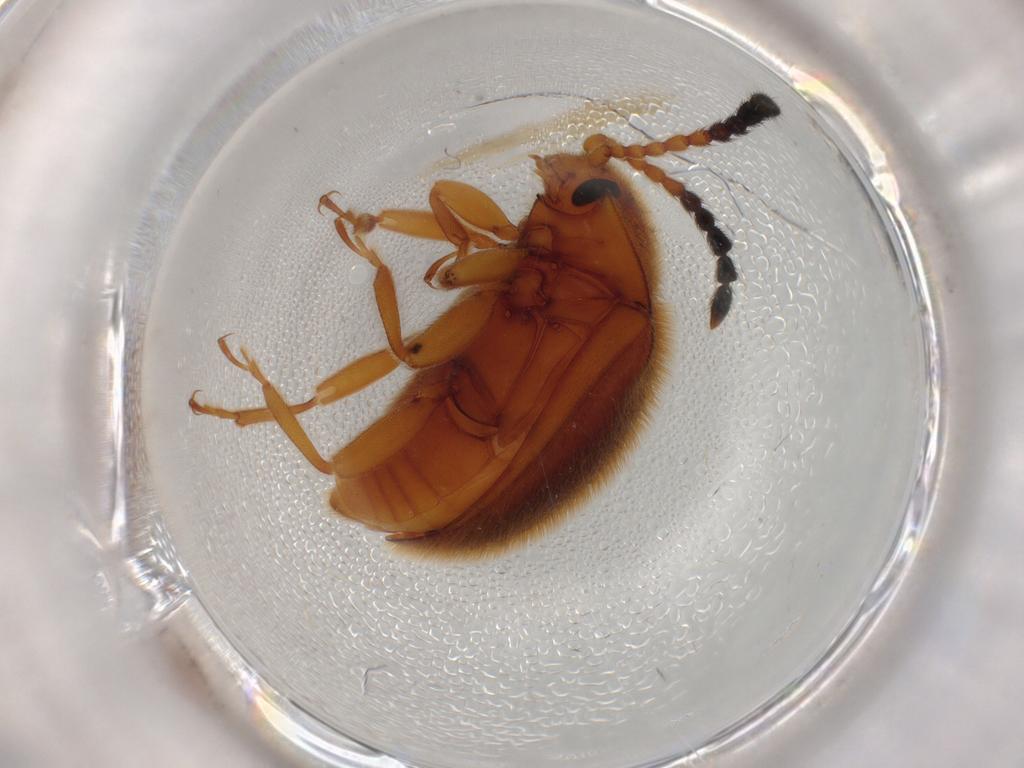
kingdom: Animalia
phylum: Arthropoda
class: Insecta
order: Coleoptera
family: Endomychidae
